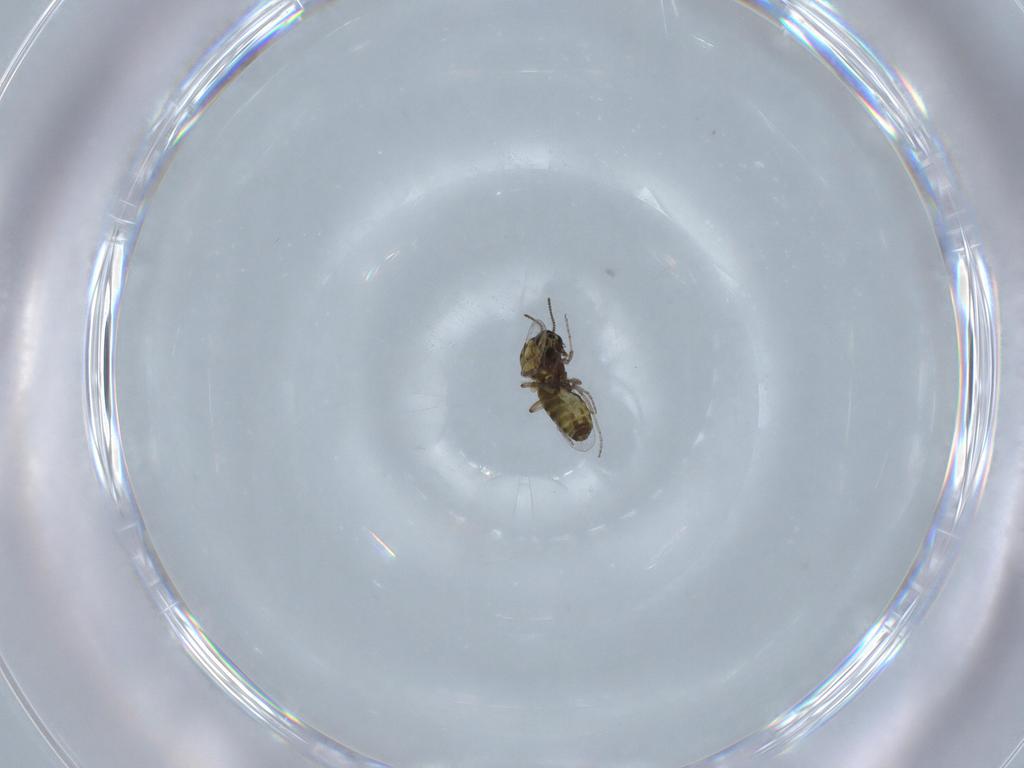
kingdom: Animalia
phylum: Arthropoda
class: Insecta
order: Diptera
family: Ceratopogonidae
